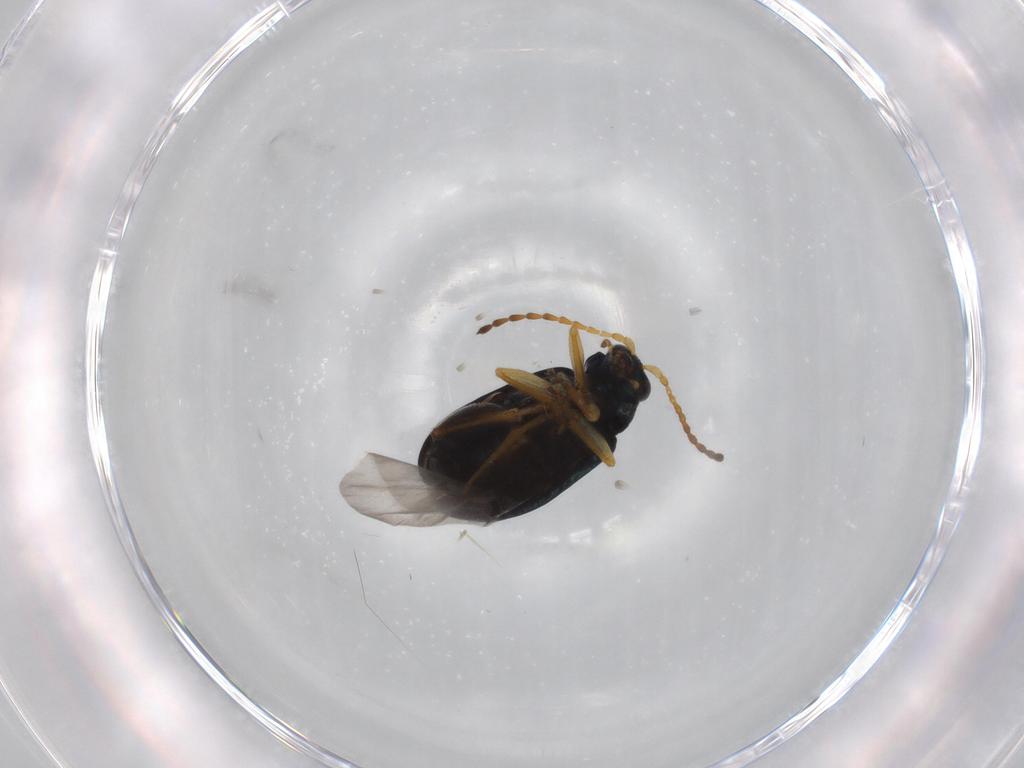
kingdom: Animalia
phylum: Arthropoda
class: Insecta
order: Coleoptera
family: Chrysomelidae
